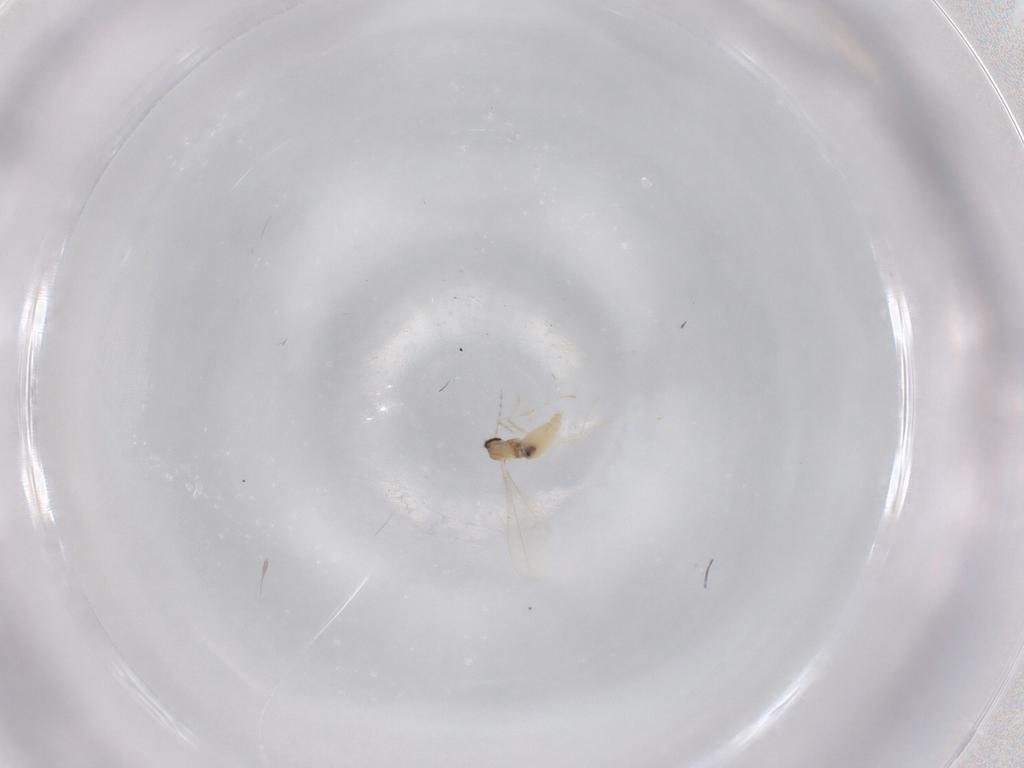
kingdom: Animalia
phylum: Arthropoda
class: Insecta
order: Diptera
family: Cecidomyiidae
